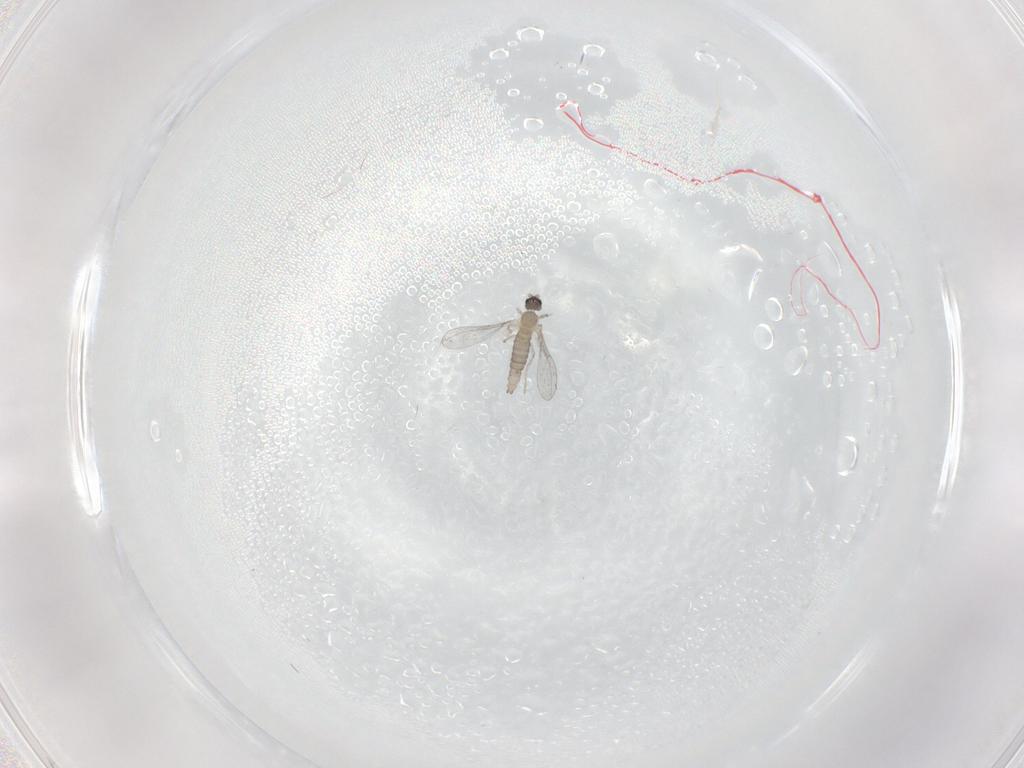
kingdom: Animalia
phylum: Arthropoda
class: Insecta
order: Diptera
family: Cecidomyiidae
